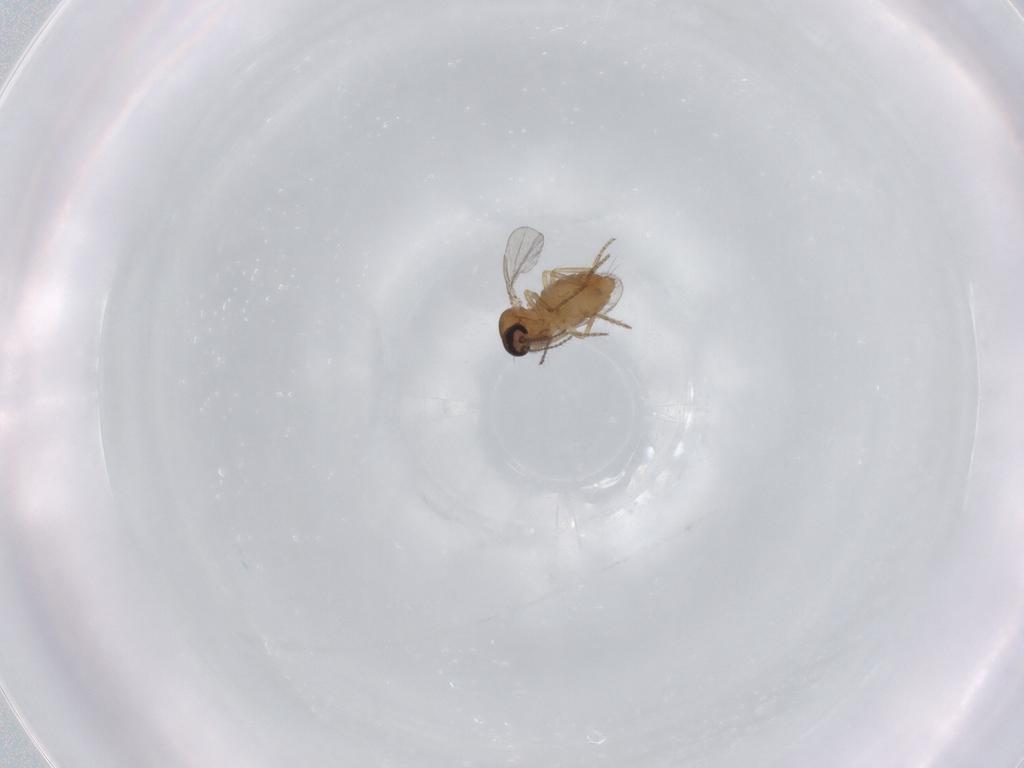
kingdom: Animalia
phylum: Arthropoda
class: Insecta
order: Diptera
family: Ceratopogonidae
